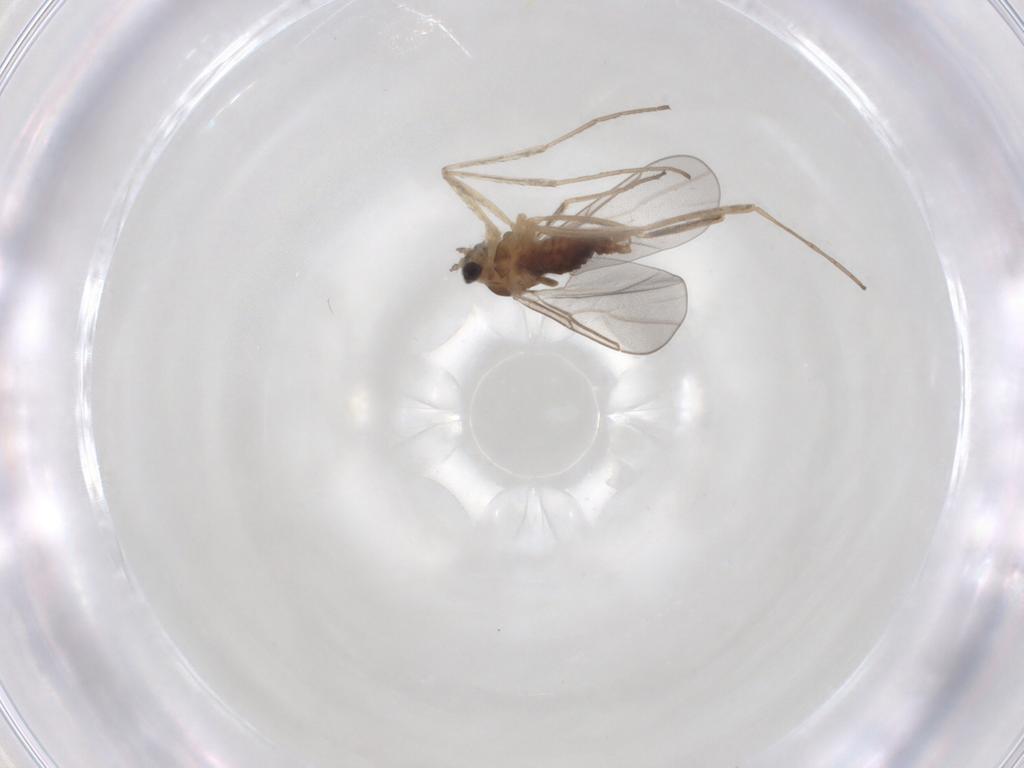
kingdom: Animalia
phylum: Arthropoda
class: Insecta
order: Diptera
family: Cecidomyiidae
